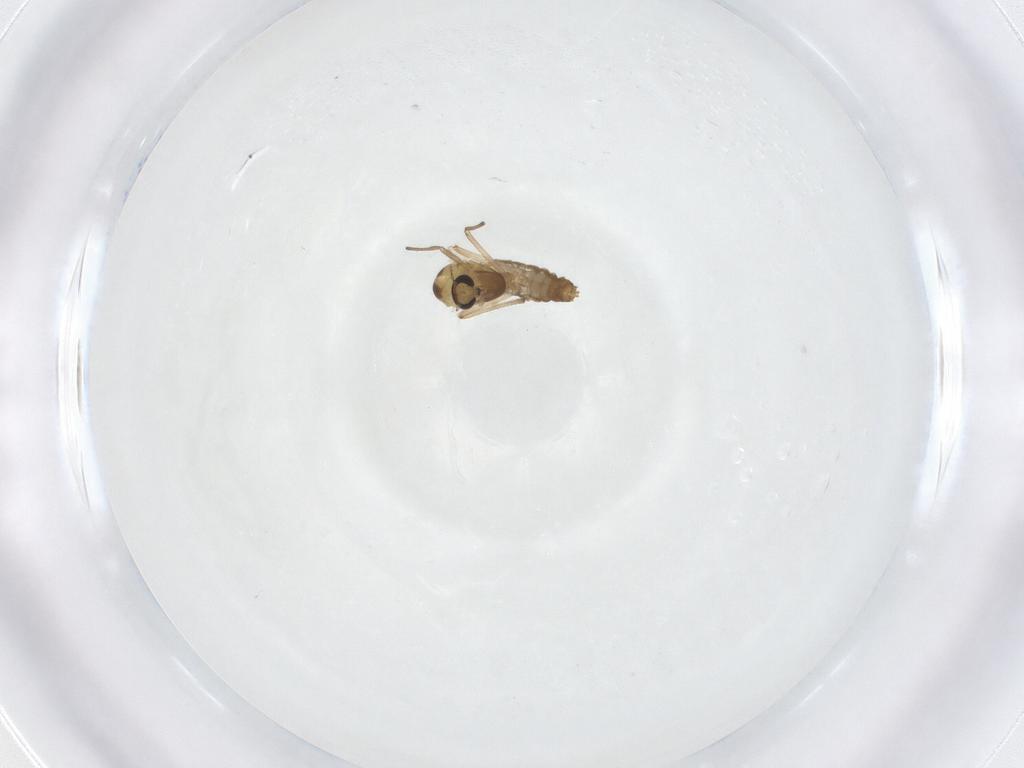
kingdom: Animalia
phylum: Arthropoda
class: Insecta
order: Diptera
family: Chironomidae
